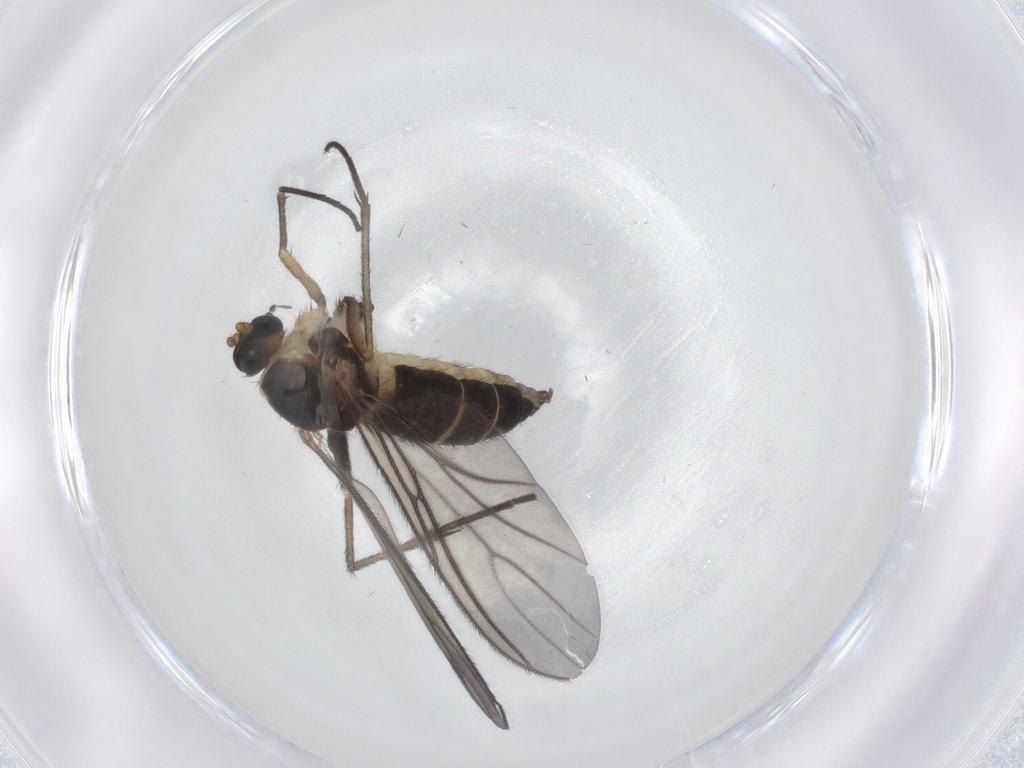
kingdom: Animalia
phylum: Arthropoda
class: Insecta
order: Diptera
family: Sciaridae
